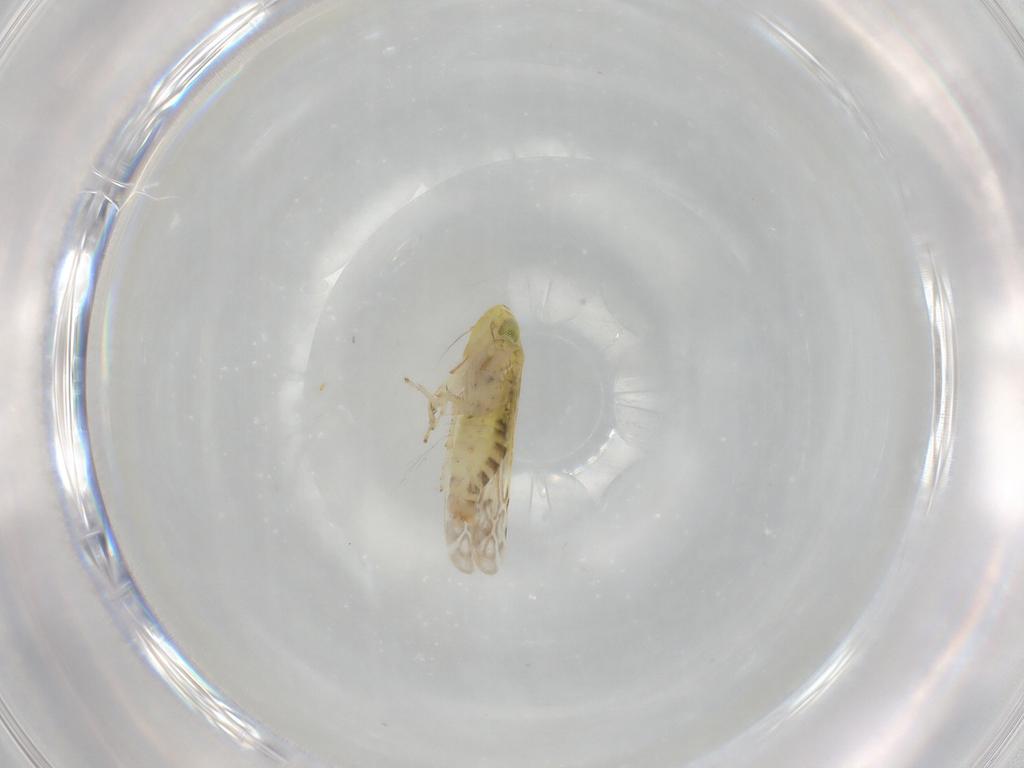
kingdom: Animalia
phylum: Arthropoda
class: Insecta
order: Hemiptera
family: Cicadellidae
